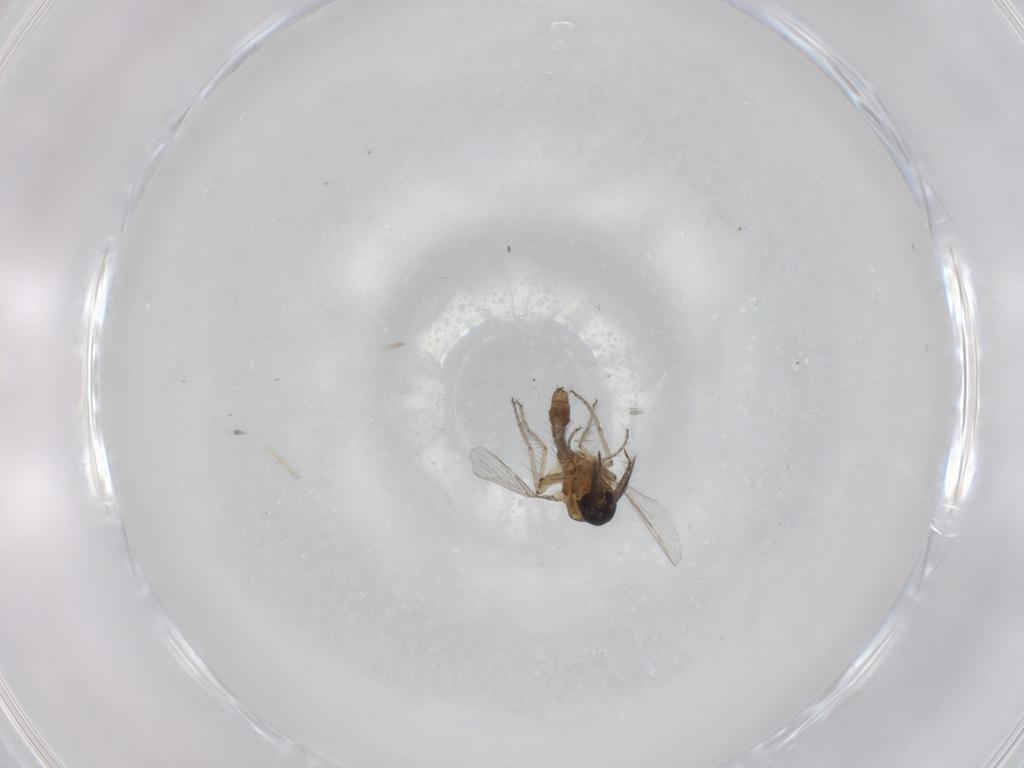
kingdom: Animalia
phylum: Arthropoda
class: Insecta
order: Diptera
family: Ceratopogonidae
